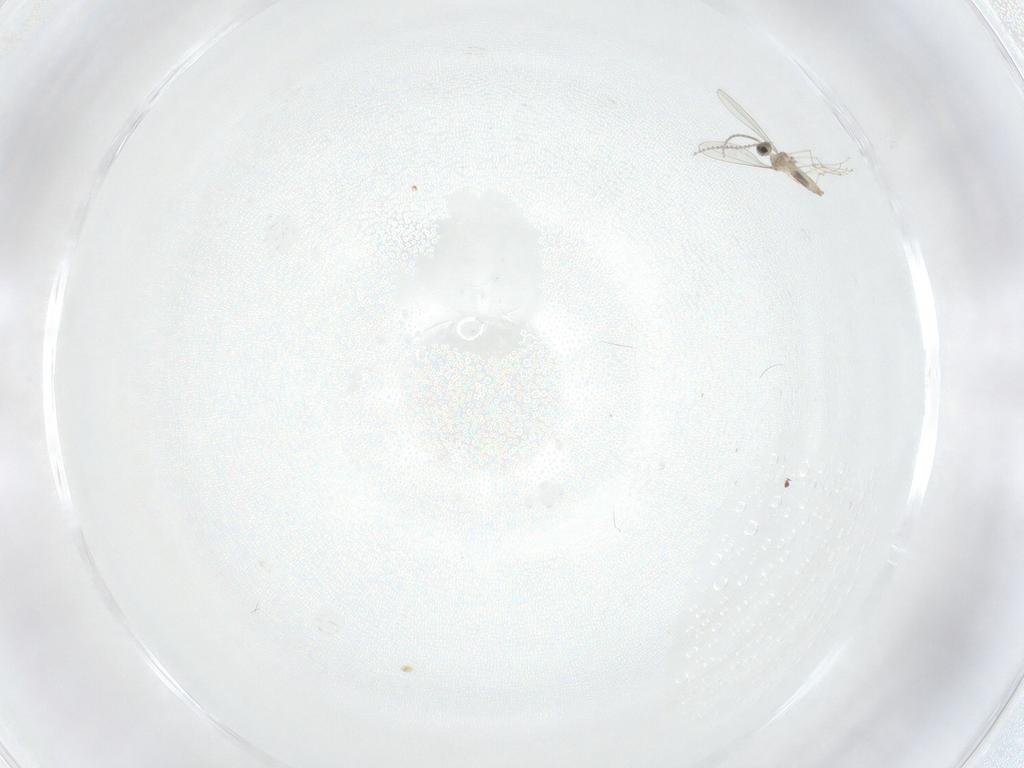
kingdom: Animalia
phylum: Arthropoda
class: Insecta
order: Diptera
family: Cecidomyiidae
